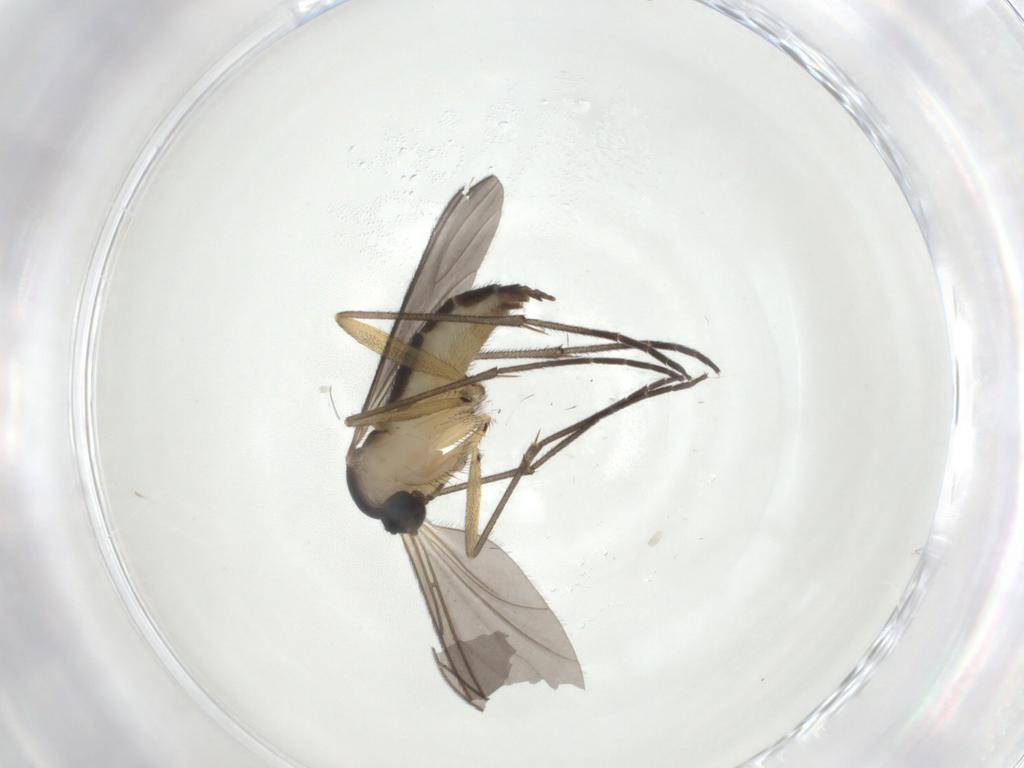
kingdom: Animalia
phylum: Arthropoda
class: Insecta
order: Diptera
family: Sciaridae
